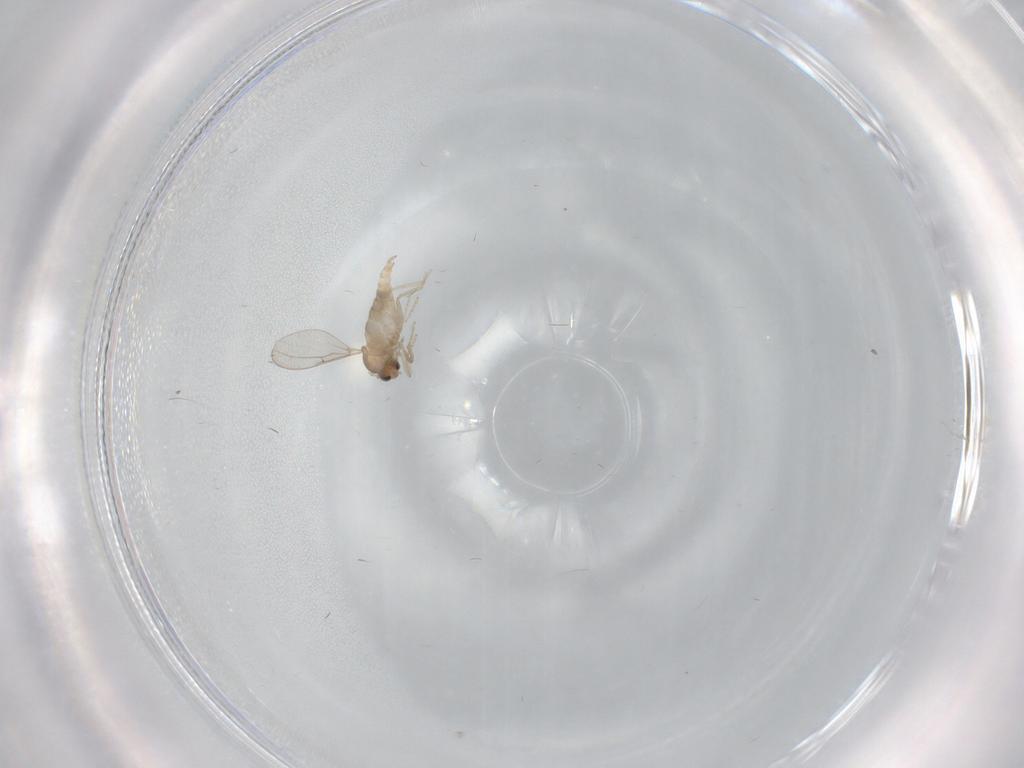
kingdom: Animalia
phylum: Arthropoda
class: Insecta
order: Diptera
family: Cecidomyiidae
